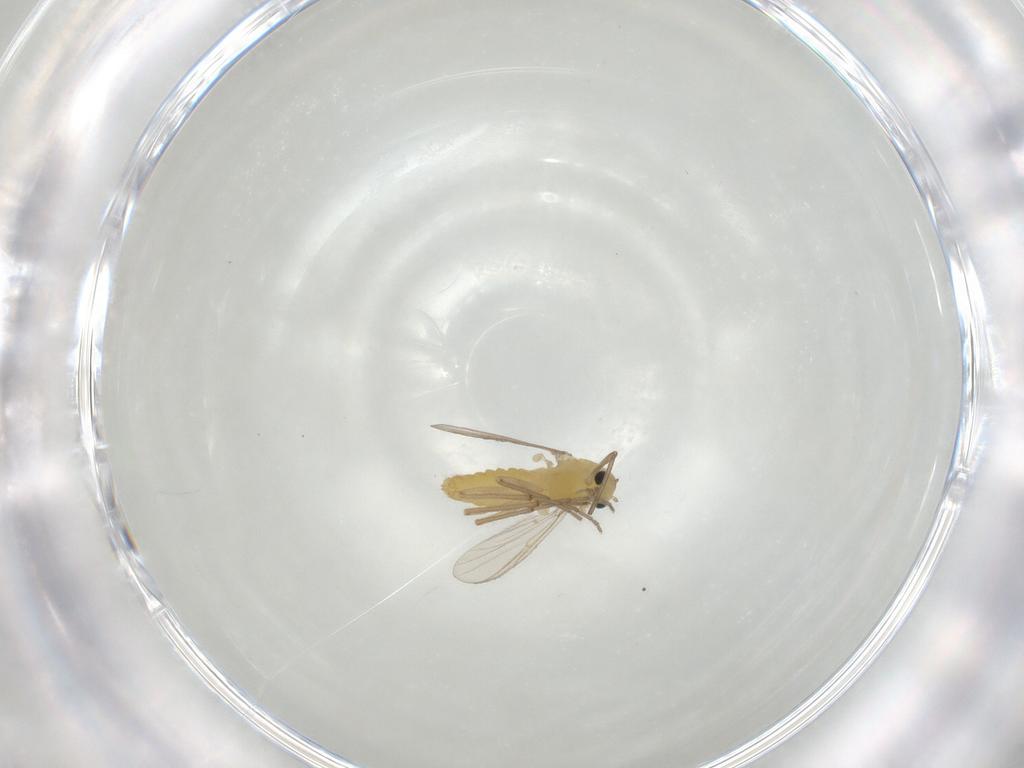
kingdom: Animalia
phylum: Arthropoda
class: Insecta
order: Diptera
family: Chironomidae
